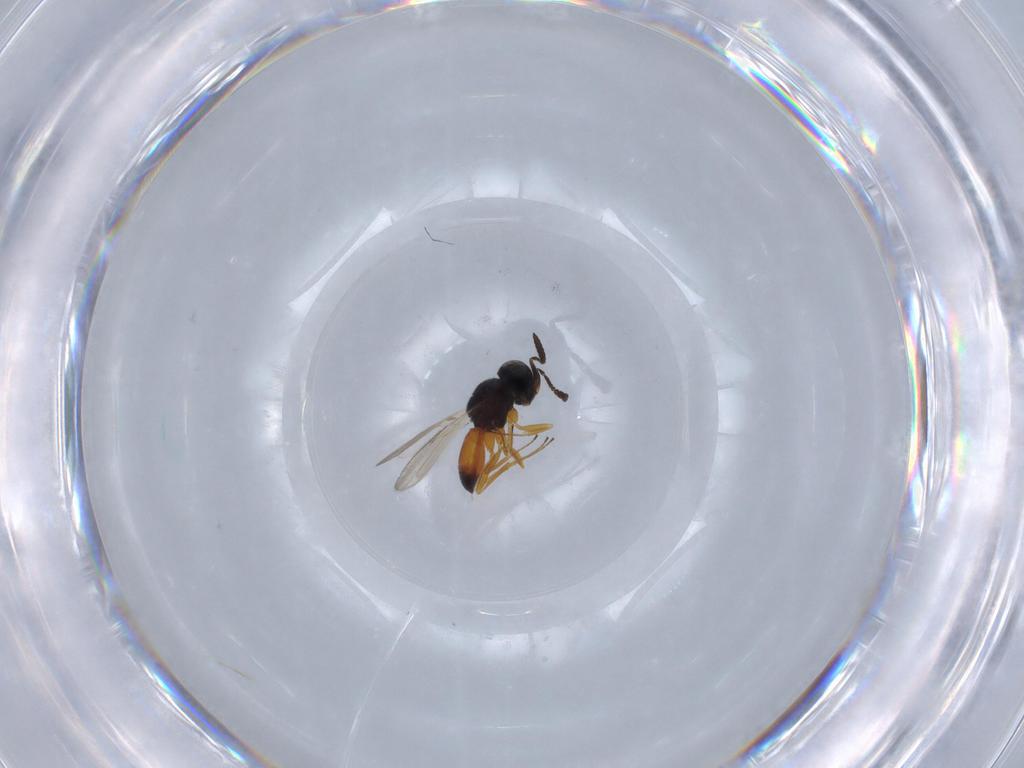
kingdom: Animalia
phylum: Arthropoda
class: Insecta
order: Hymenoptera
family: Scelionidae
